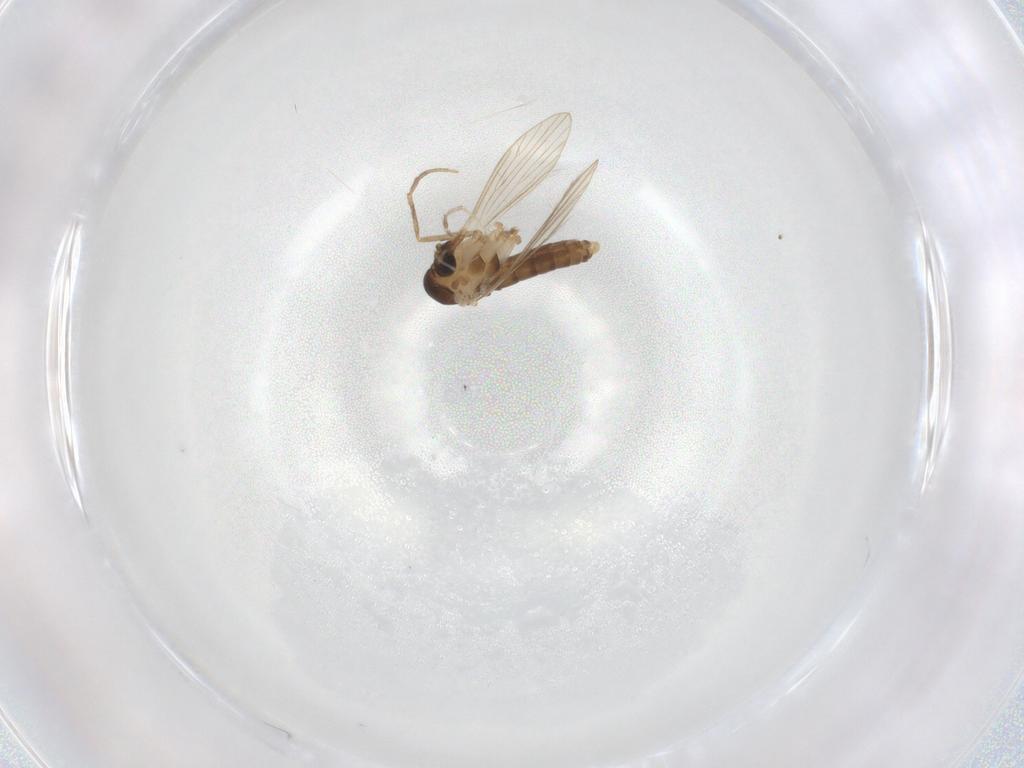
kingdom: Animalia
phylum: Arthropoda
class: Insecta
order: Diptera
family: Psychodidae
